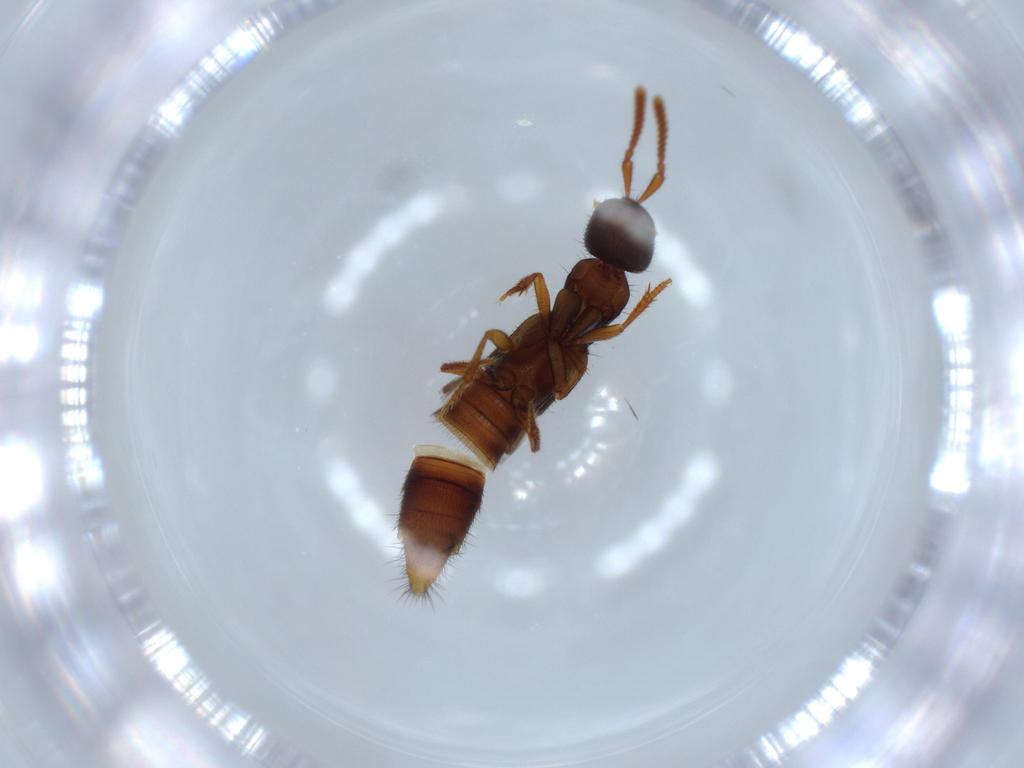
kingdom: Animalia
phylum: Arthropoda
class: Insecta
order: Coleoptera
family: Staphylinidae
